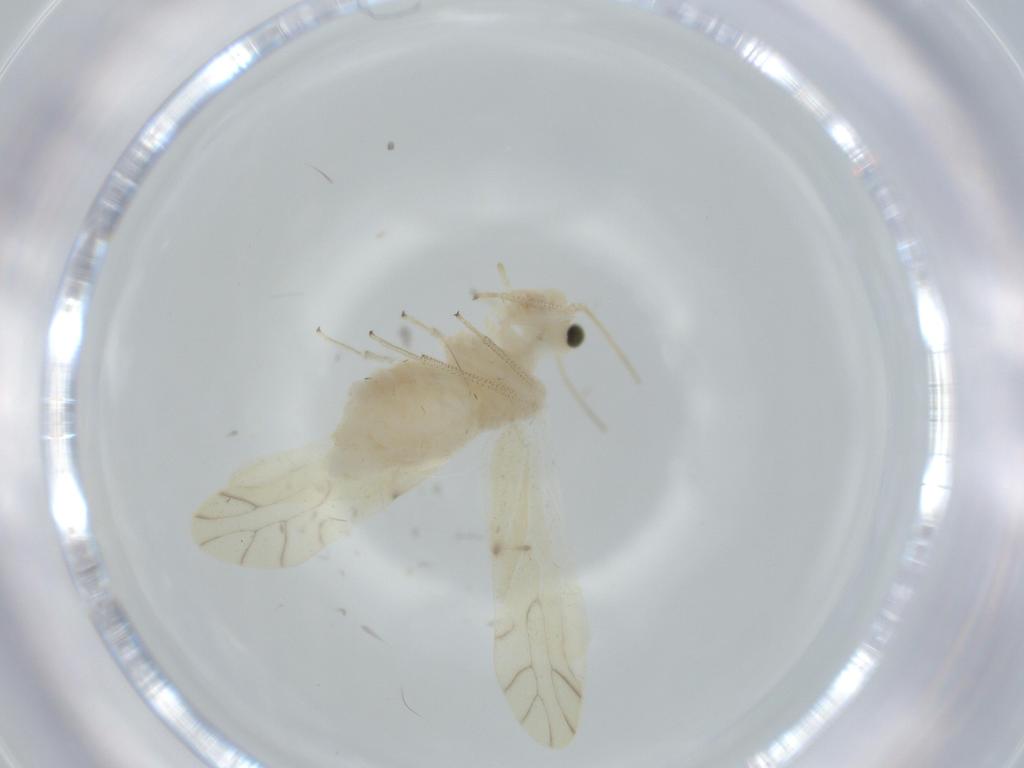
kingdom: Animalia
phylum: Arthropoda
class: Insecta
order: Psocodea
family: Caeciliusidae
